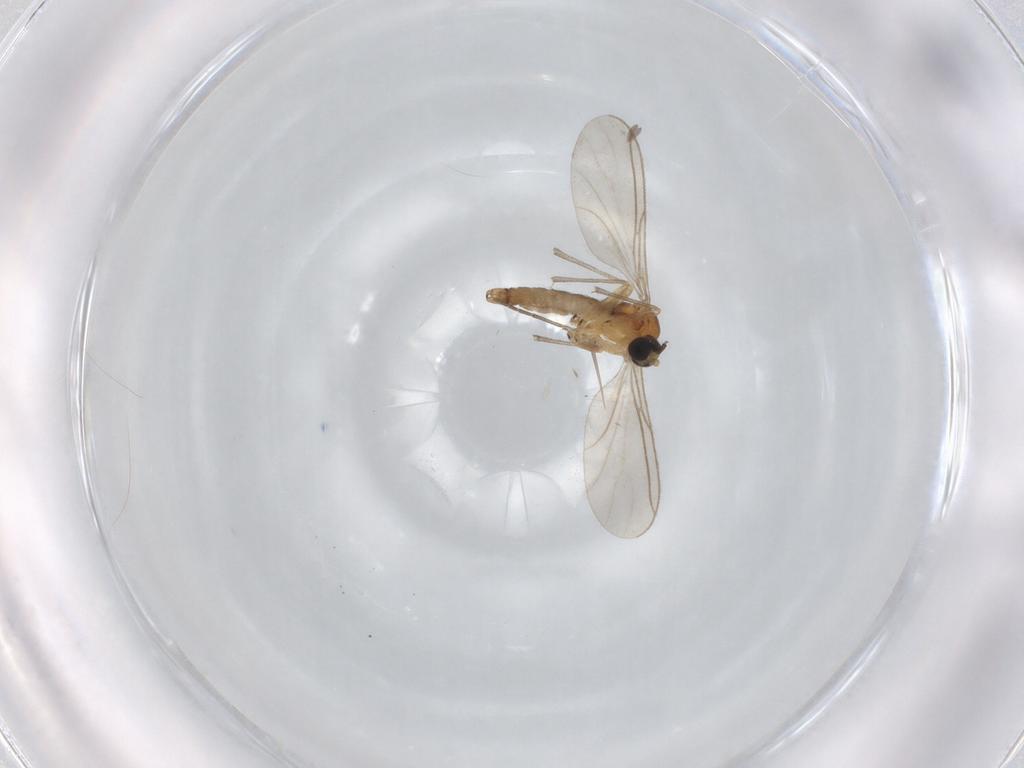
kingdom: Animalia
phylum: Arthropoda
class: Insecta
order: Diptera
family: Sciaridae
